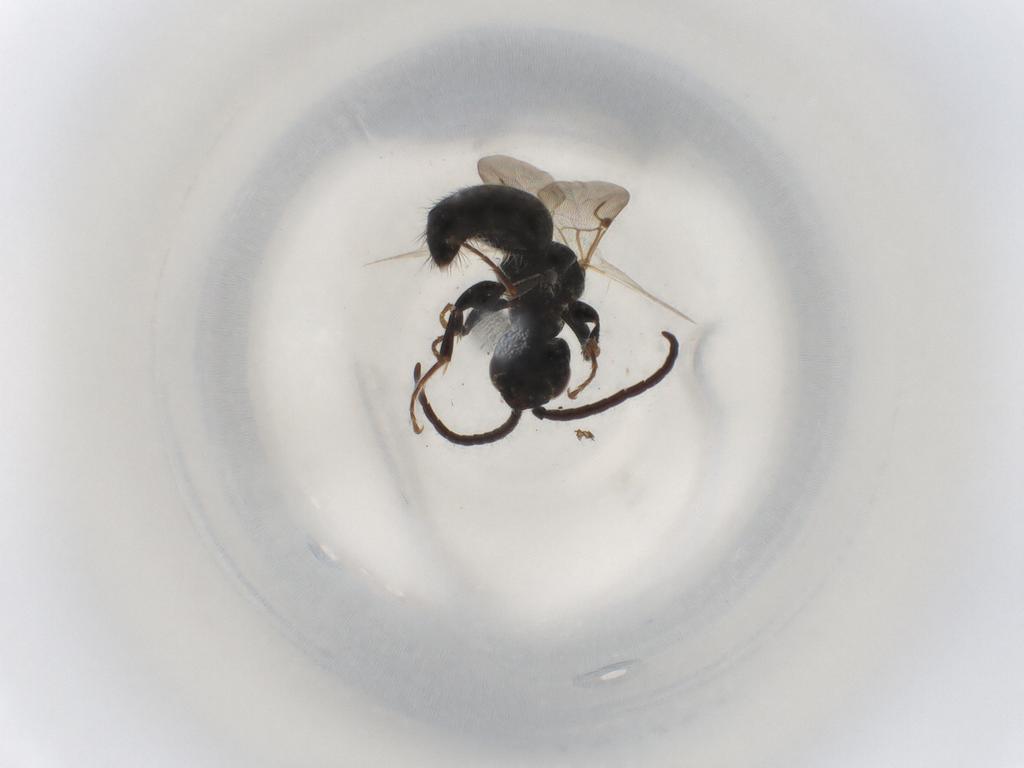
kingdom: Animalia
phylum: Arthropoda
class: Insecta
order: Hymenoptera
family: Bethylidae
